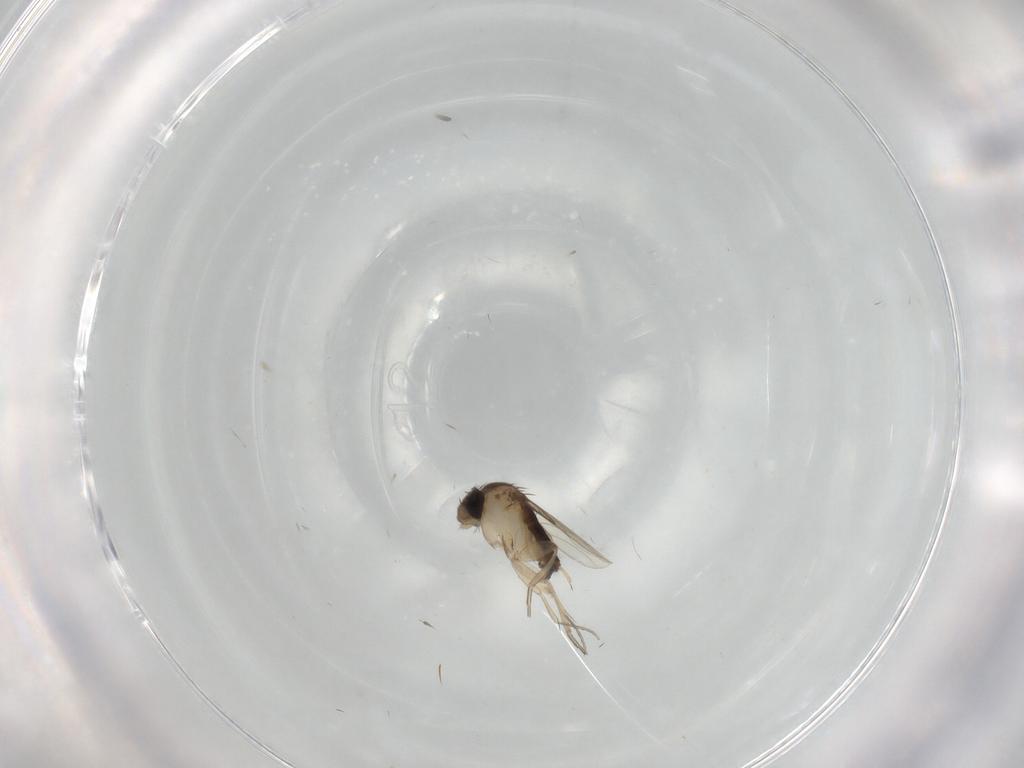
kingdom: Animalia
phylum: Arthropoda
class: Insecta
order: Diptera
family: Phoridae
